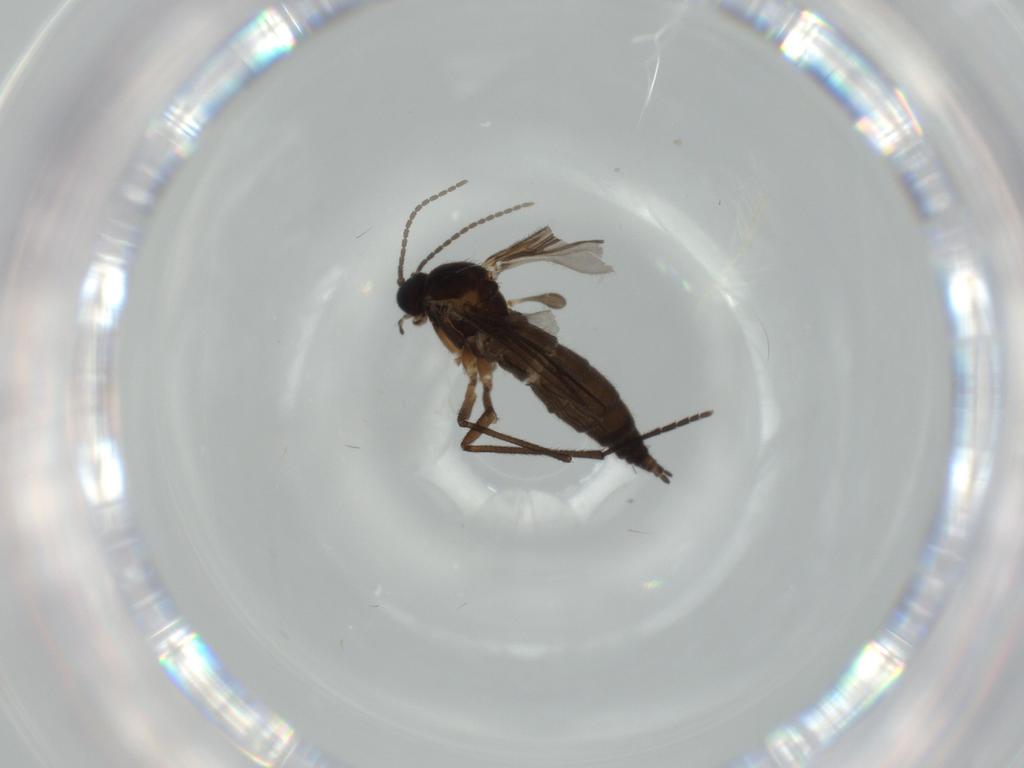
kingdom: Animalia
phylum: Arthropoda
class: Insecta
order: Diptera
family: Sciaridae
